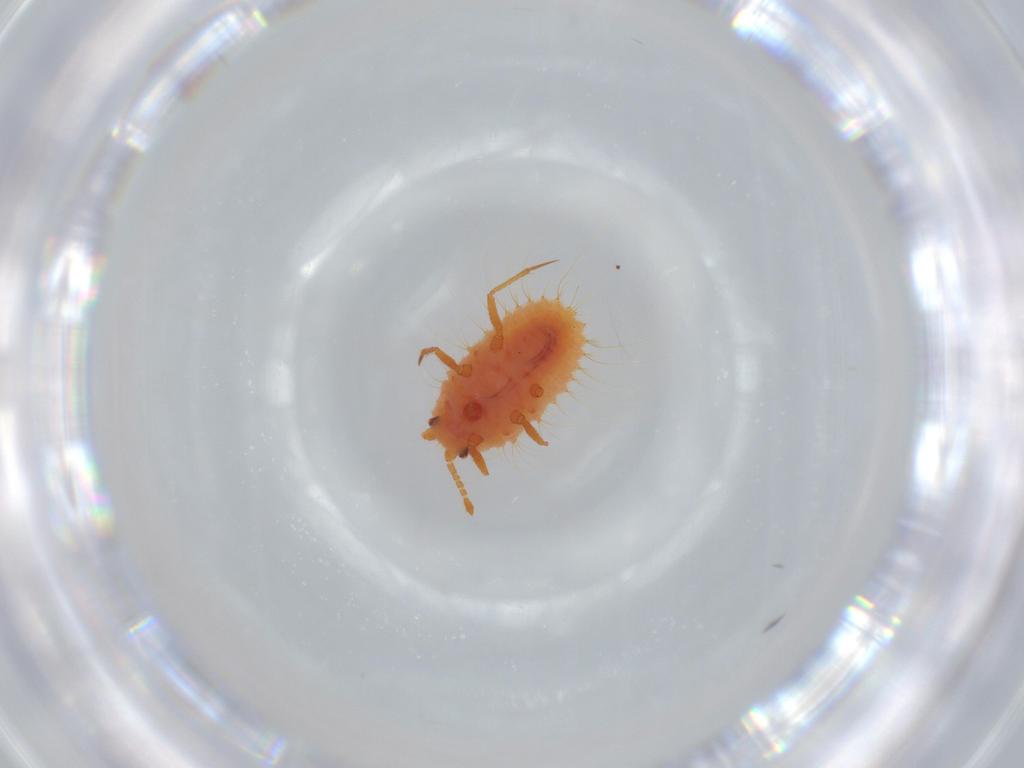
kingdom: Animalia
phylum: Arthropoda
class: Insecta
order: Hemiptera
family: Coccoidea_incertae_sedis
